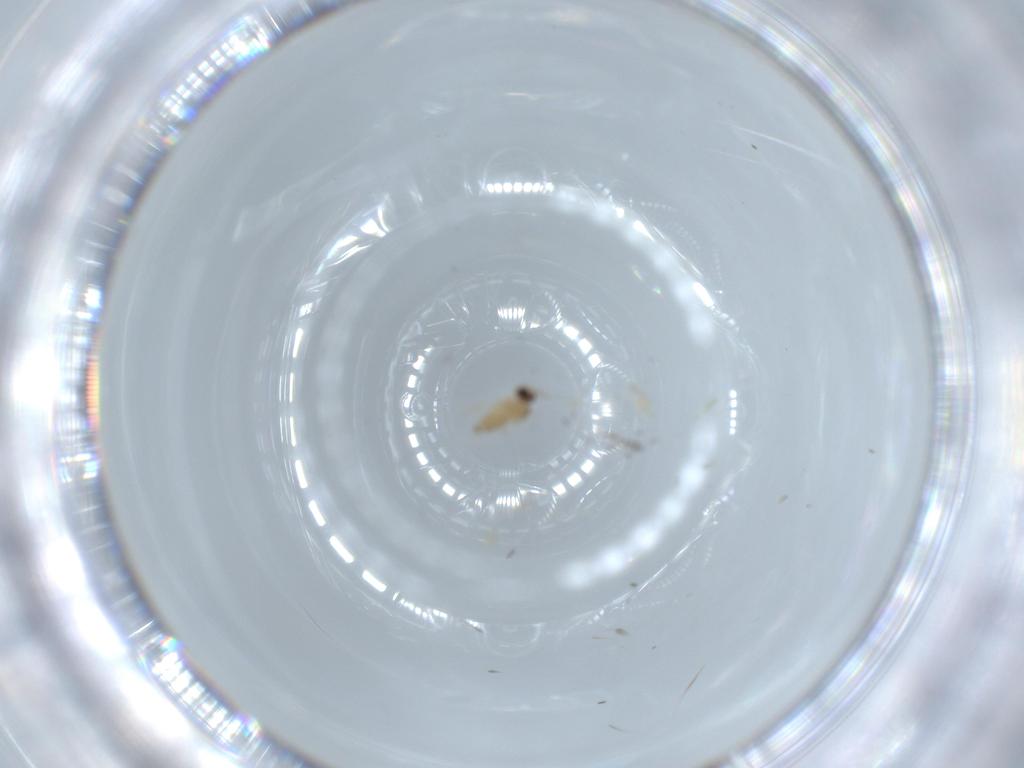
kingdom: Animalia
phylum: Arthropoda
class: Insecta
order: Diptera
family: Cecidomyiidae
